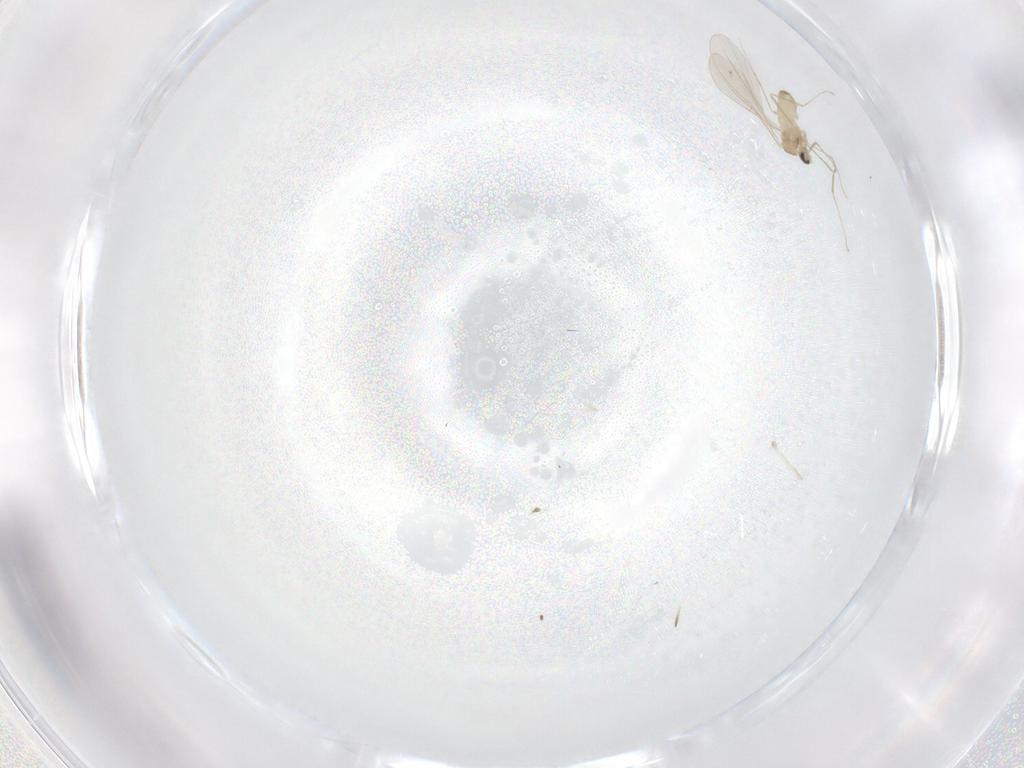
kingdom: Animalia
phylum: Arthropoda
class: Insecta
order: Diptera
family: Cecidomyiidae
